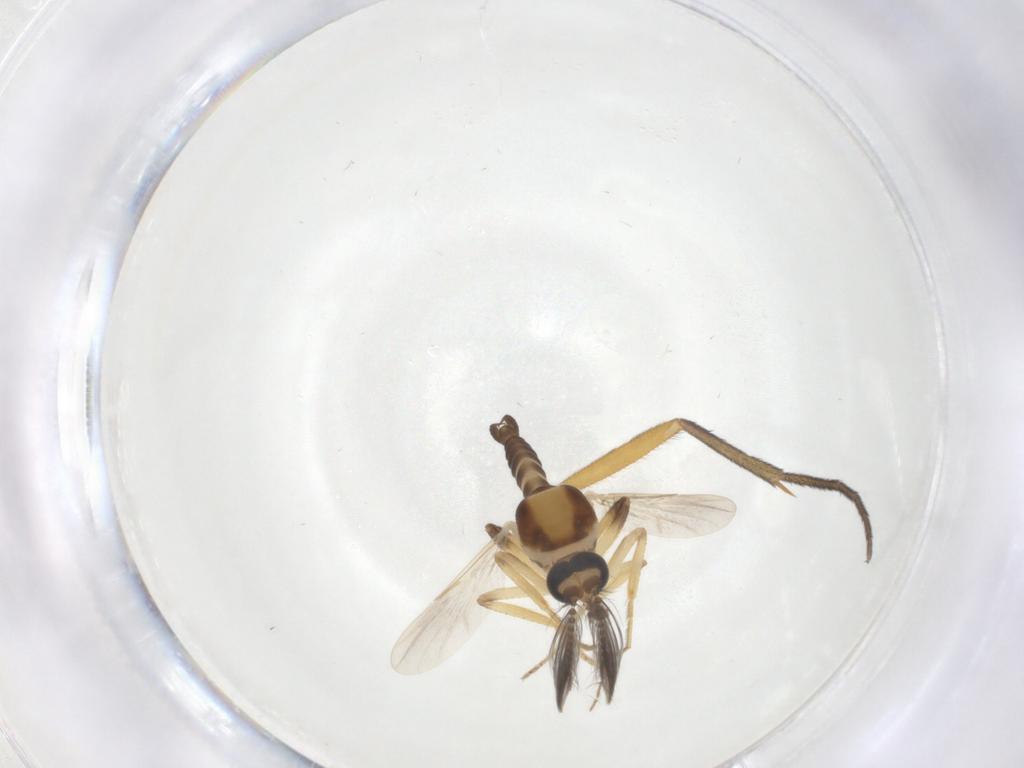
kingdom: Animalia
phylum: Arthropoda
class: Insecta
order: Diptera
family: Ceratopogonidae
